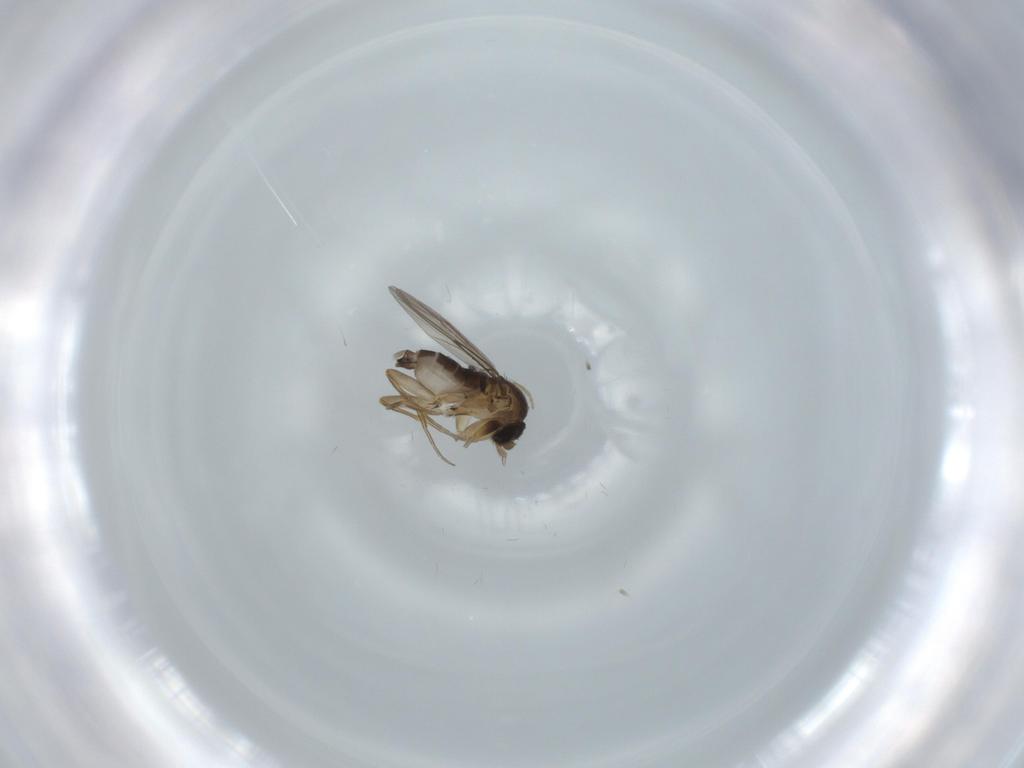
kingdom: Animalia
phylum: Arthropoda
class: Insecta
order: Diptera
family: Phoridae
